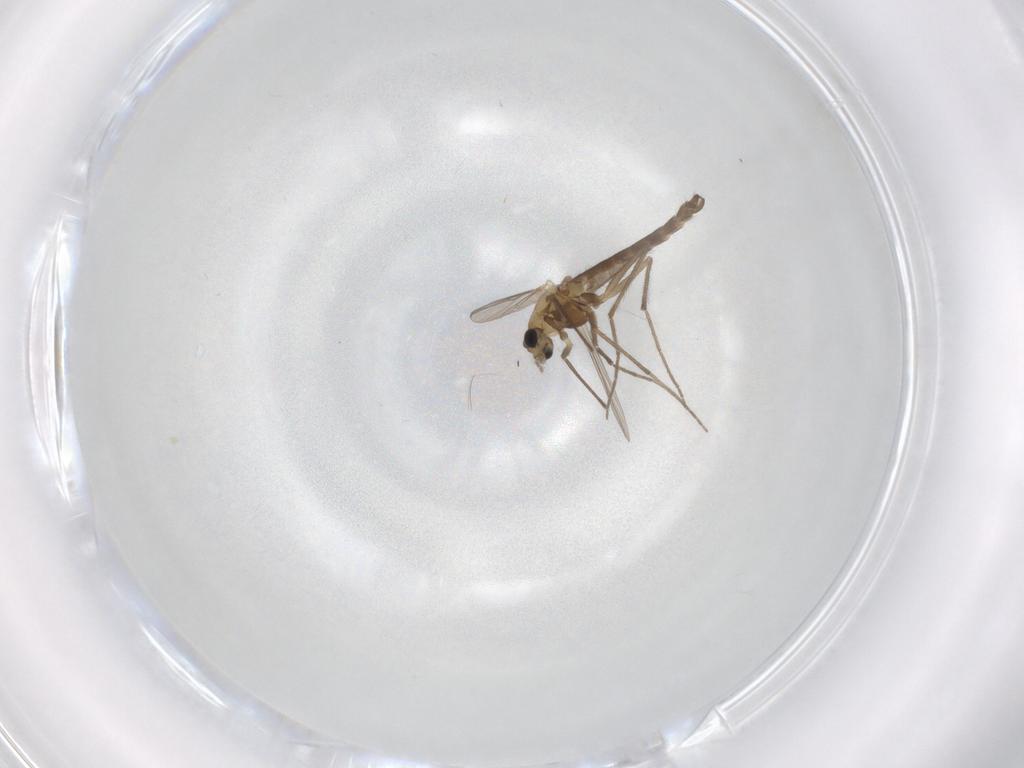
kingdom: Animalia
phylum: Arthropoda
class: Insecta
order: Diptera
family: Chironomidae
